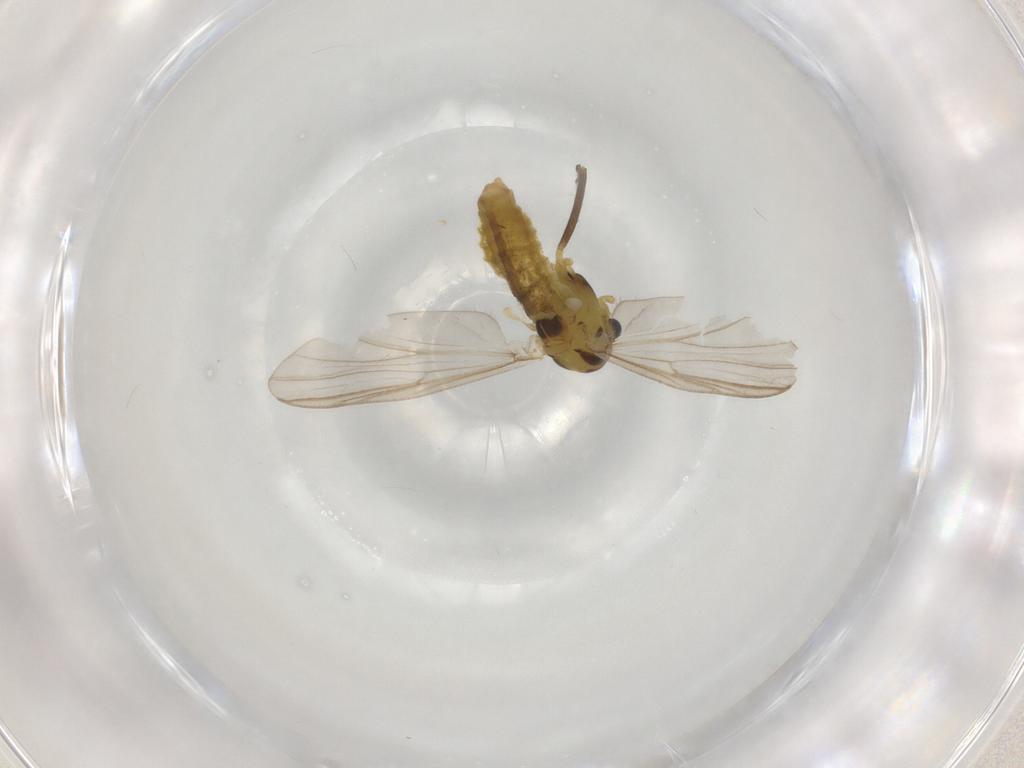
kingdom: Animalia
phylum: Arthropoda
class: Insecta
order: Diptera
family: Chironomidae
